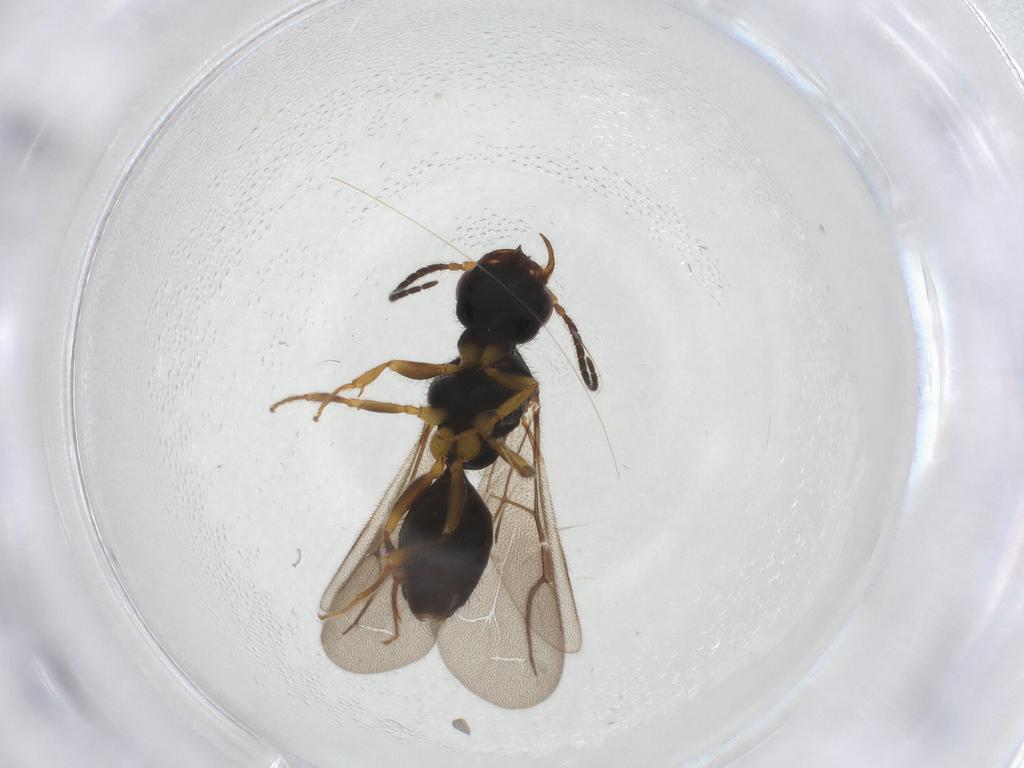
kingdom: Animalia
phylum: Arthropoda
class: Insecta
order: Hymenoptera
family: Bethylidae
